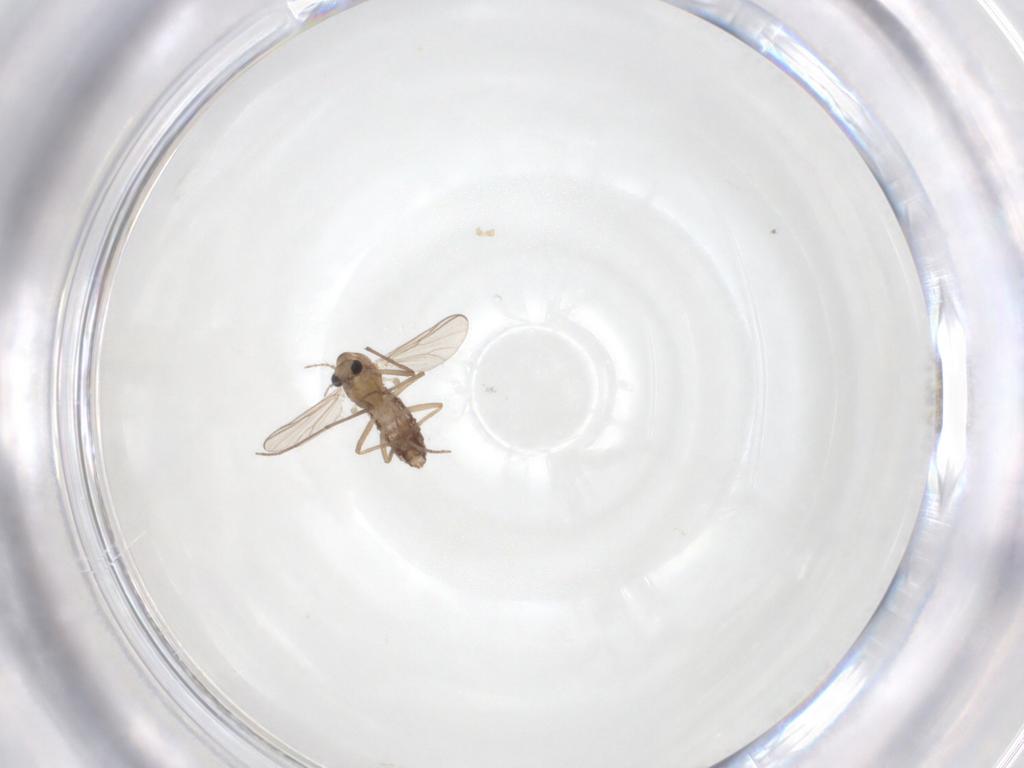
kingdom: Animalia
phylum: Arthropoda
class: Insecta
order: Diptera
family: Chironomidae
